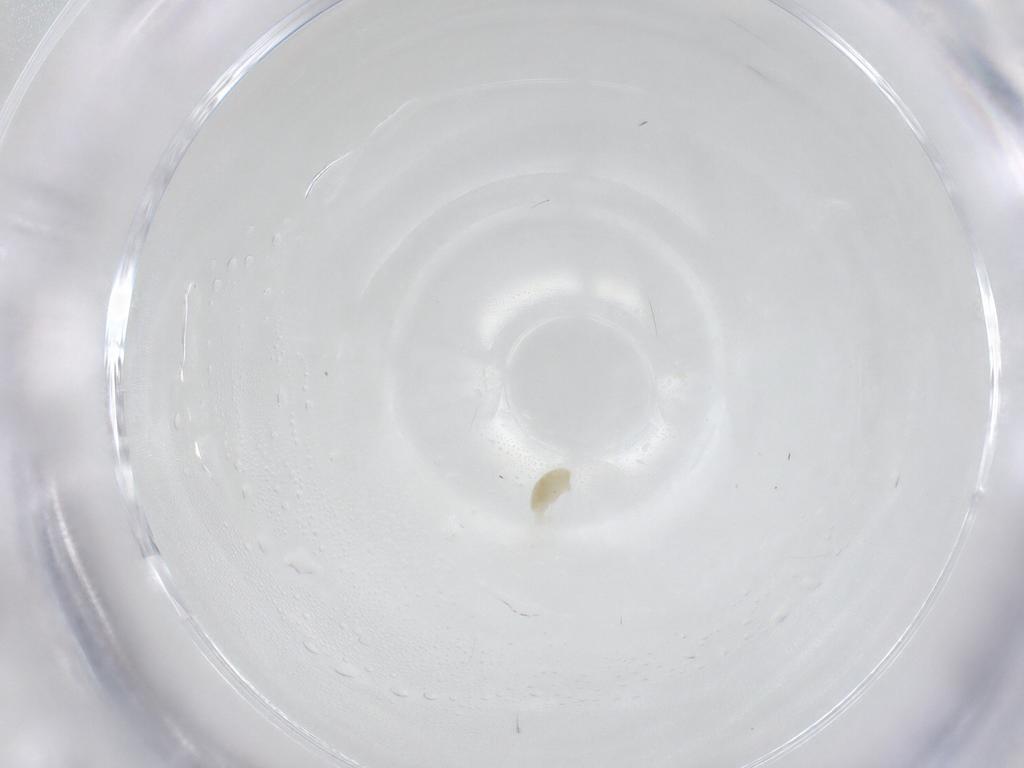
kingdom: Animalia
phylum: Arthropoda
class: Arachnida
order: Trombidiformes
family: Eupodidae
